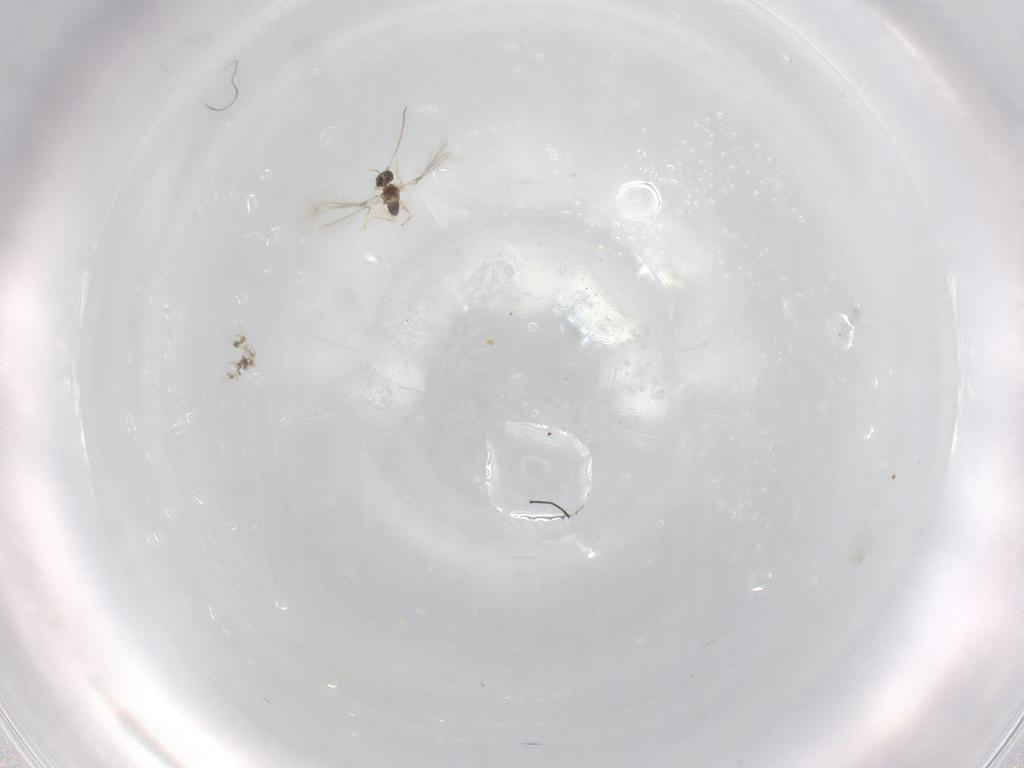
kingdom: Animalia
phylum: Arthropoda
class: Insecta
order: Hymenoptera
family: Mymaridae
